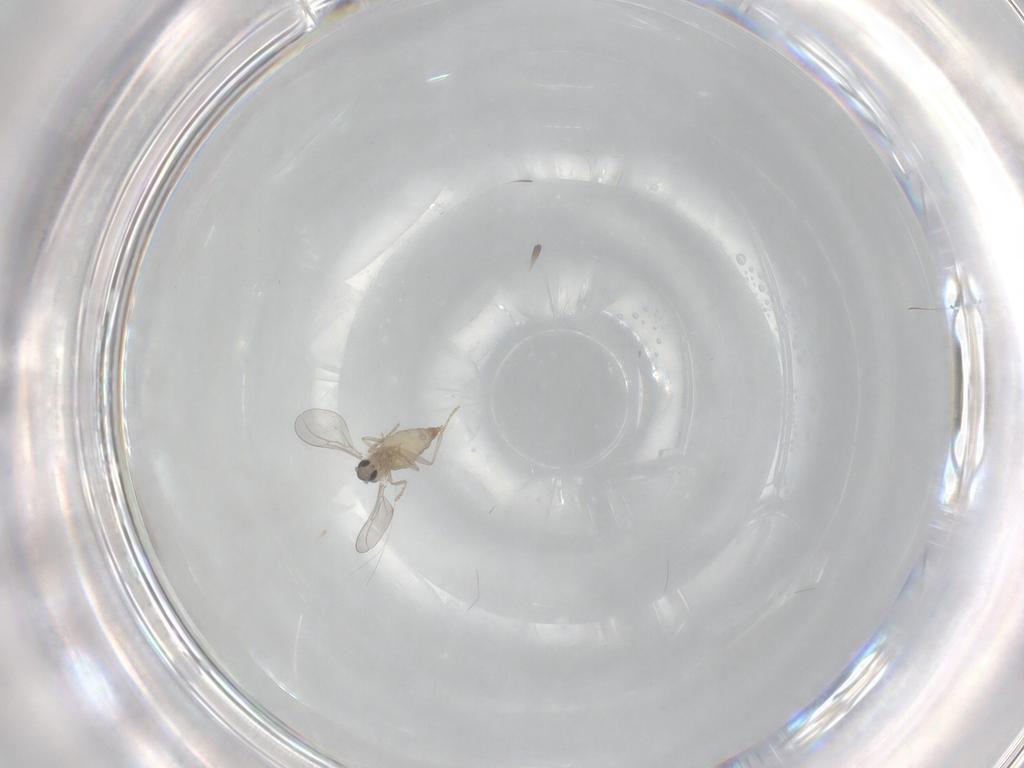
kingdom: Animalia
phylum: Arthropoda
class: Insecta
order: Diptera
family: Cecidomyiidae
